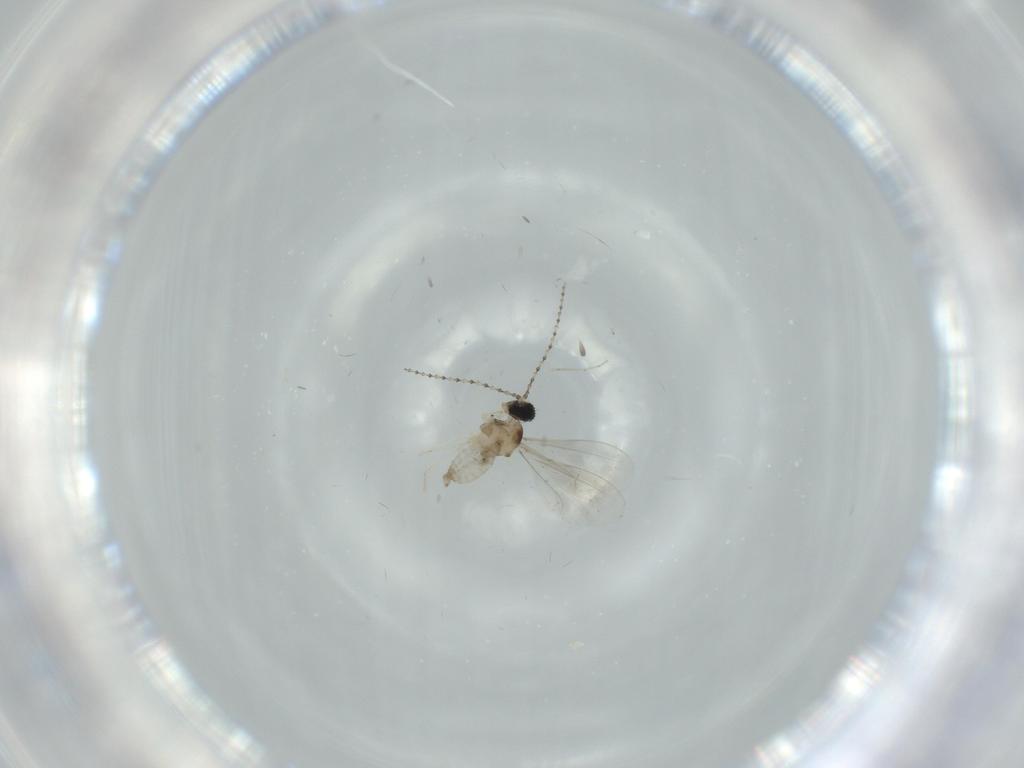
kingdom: Animalia
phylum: Arthropoda
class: Insecta
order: Diptera
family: Cecidomyiidae
